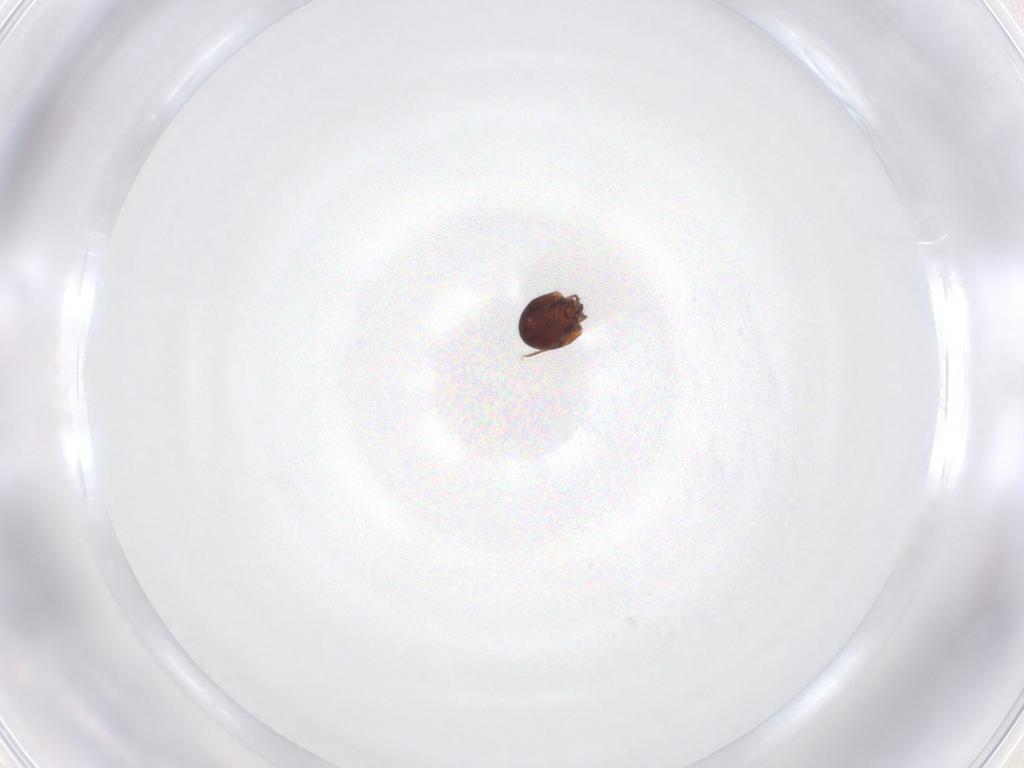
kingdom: Animalia
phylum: Arthropoda
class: Arachnida
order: Sarcoptiformes
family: Humerobatidae
